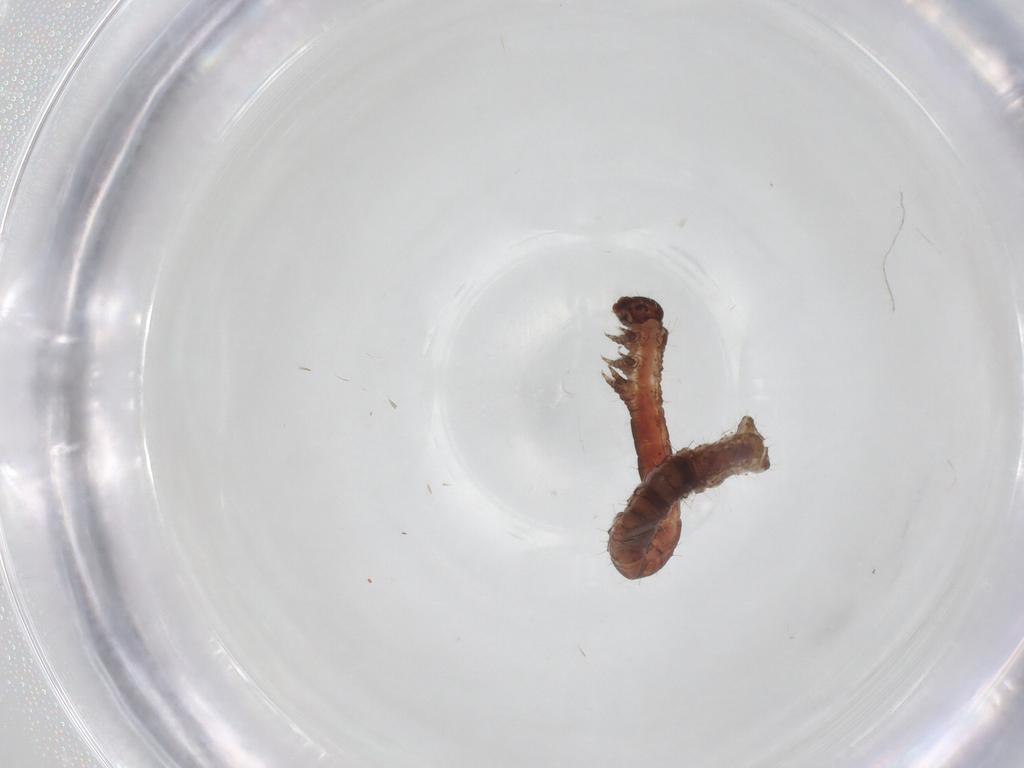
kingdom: Animalia
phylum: Arthropoda
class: Insecta
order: Lepidoptera
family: Geometridae
